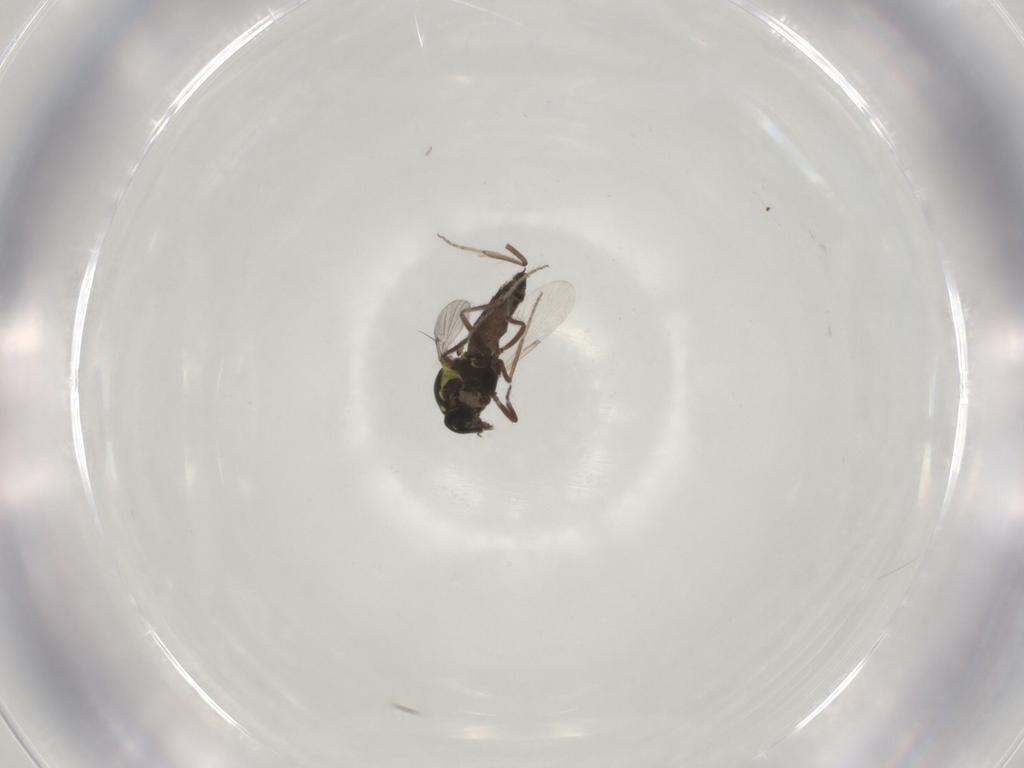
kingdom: Animalia
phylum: Arthropoda
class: Insecta
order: Diptera
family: Ceratopogonidae
